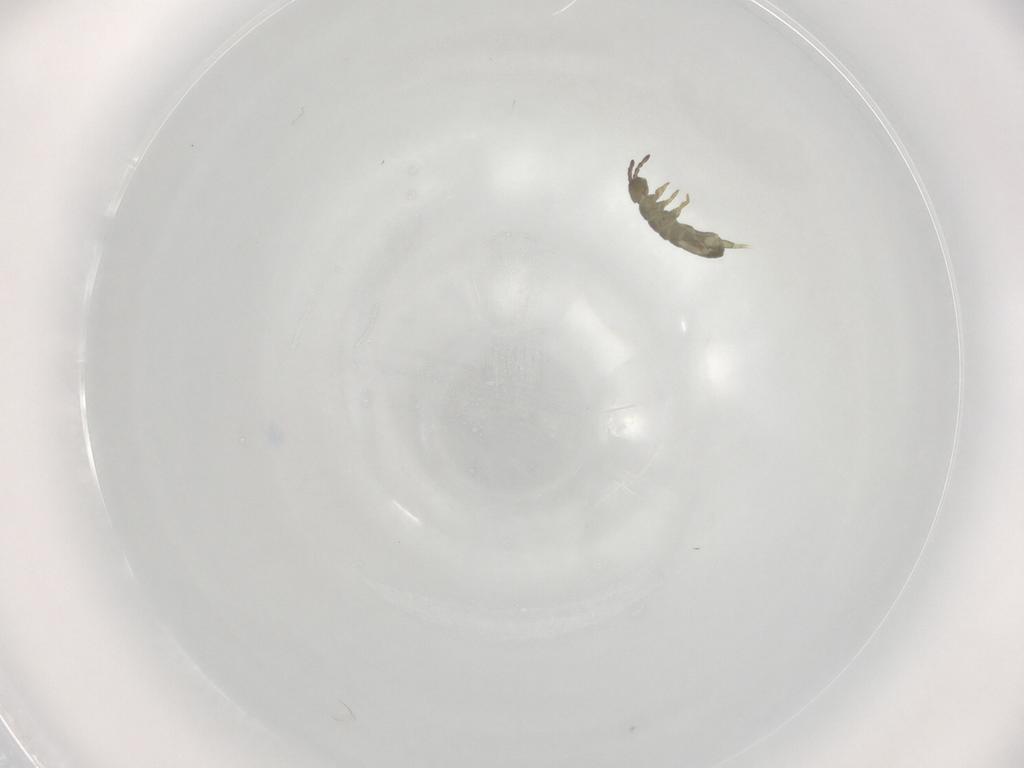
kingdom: Animalia
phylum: Arthropoda
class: Collembola
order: Entomobryomorpha
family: Isotomidae
